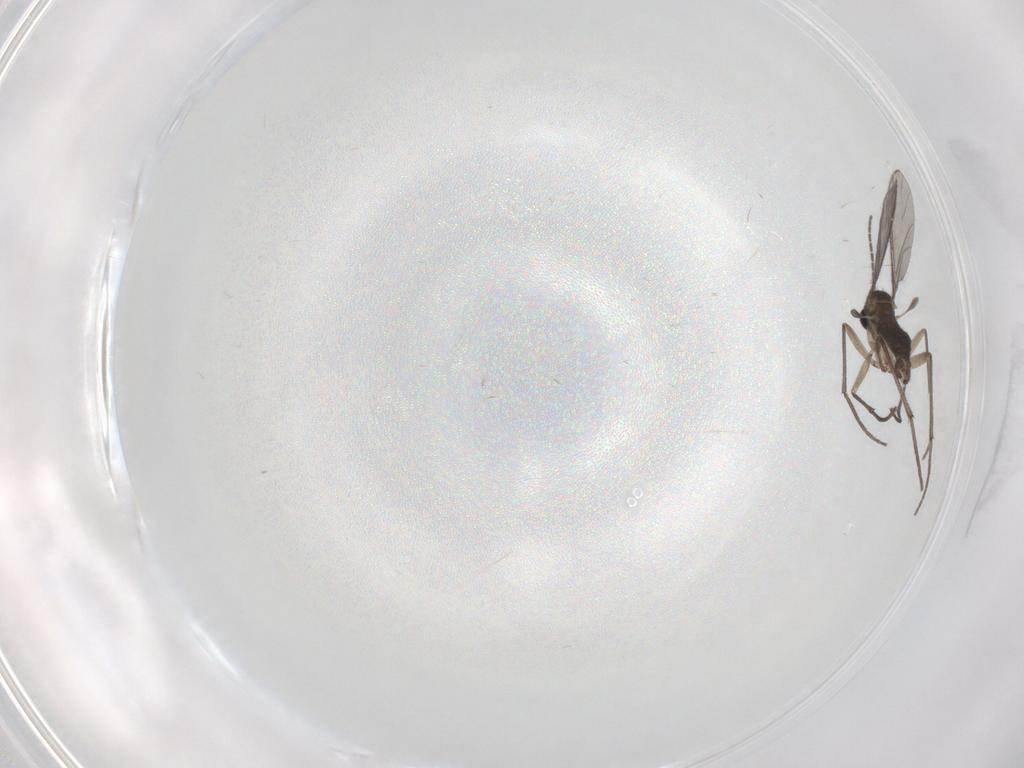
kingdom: Animalia
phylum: Arthropoda
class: Insecta
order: Diptera
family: Sciaridae
